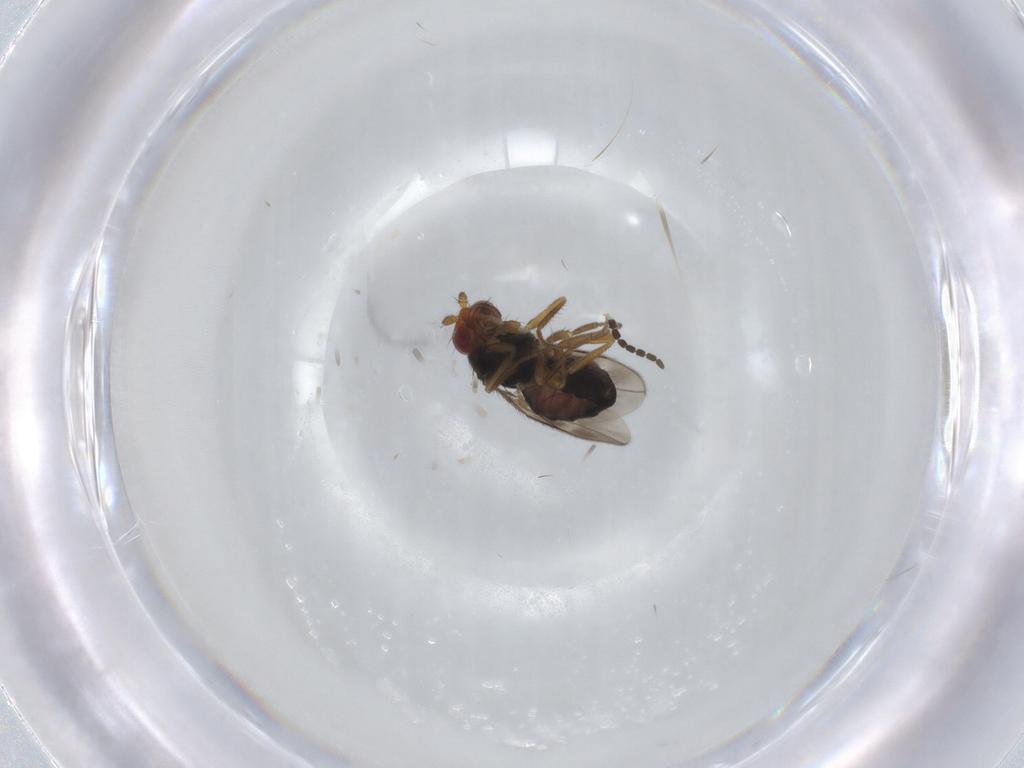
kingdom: Animalia
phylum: Arthropoda
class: Insecta
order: Diptera
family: Sphaeroceridae
